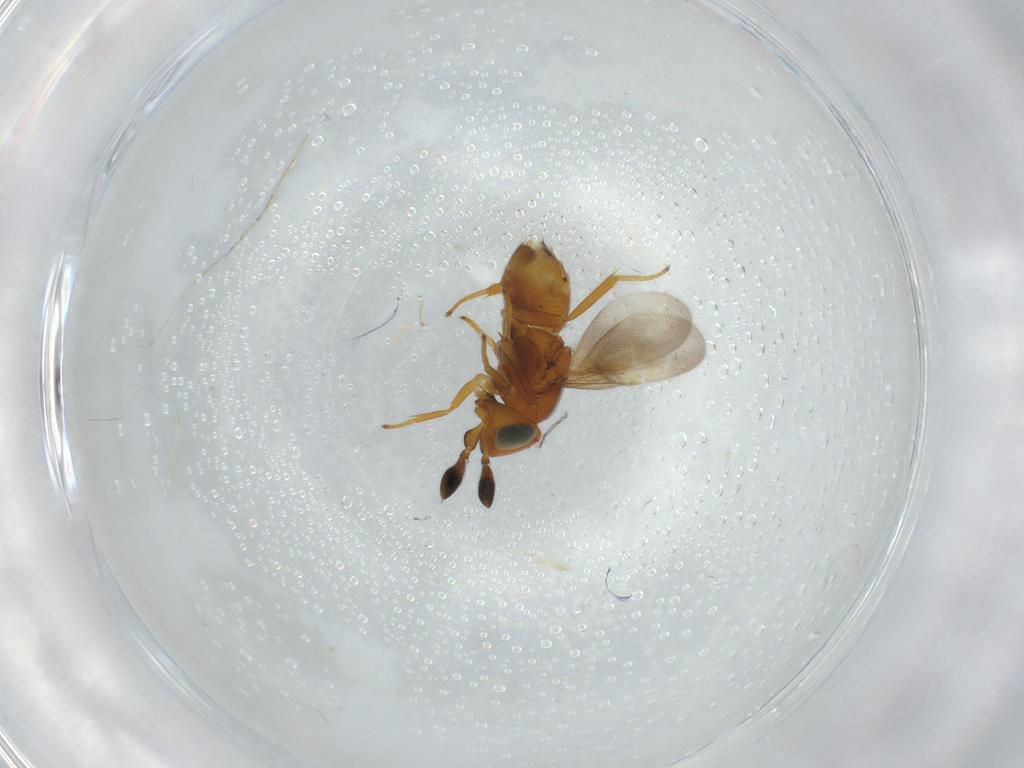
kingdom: Animalia
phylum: Arthropoda
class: Insecta
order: Hymenoptera
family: Encyrtidae
